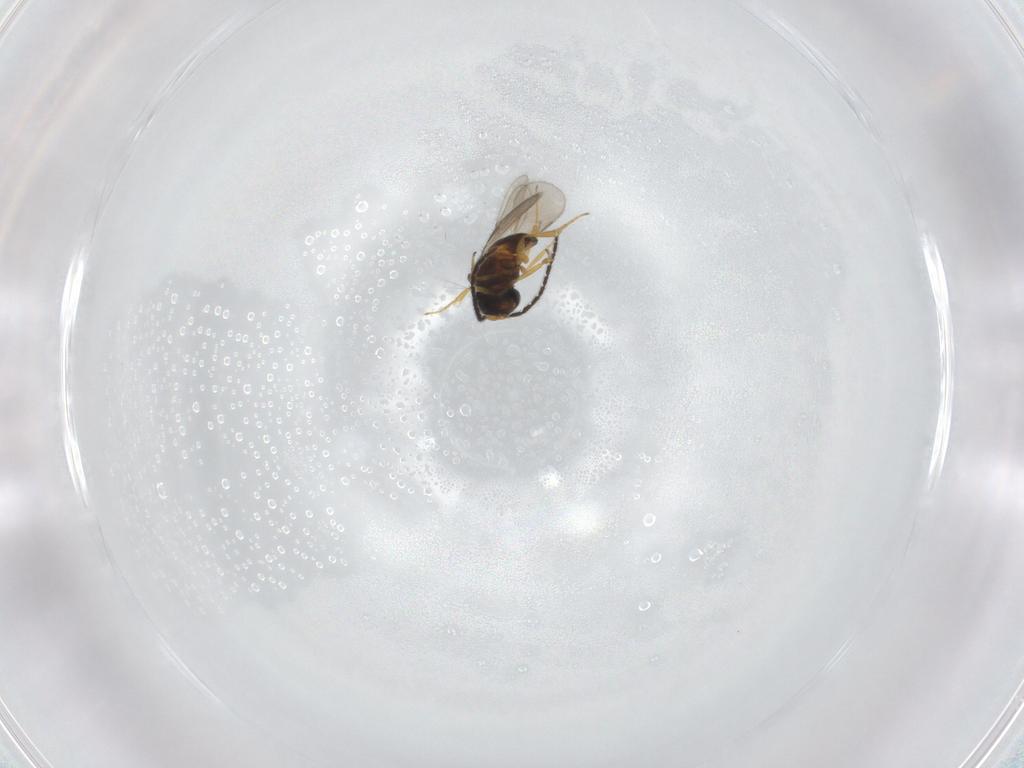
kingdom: Animalia
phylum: Arthropoda
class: Insecta
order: Hymenoptera
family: Scelionidae
